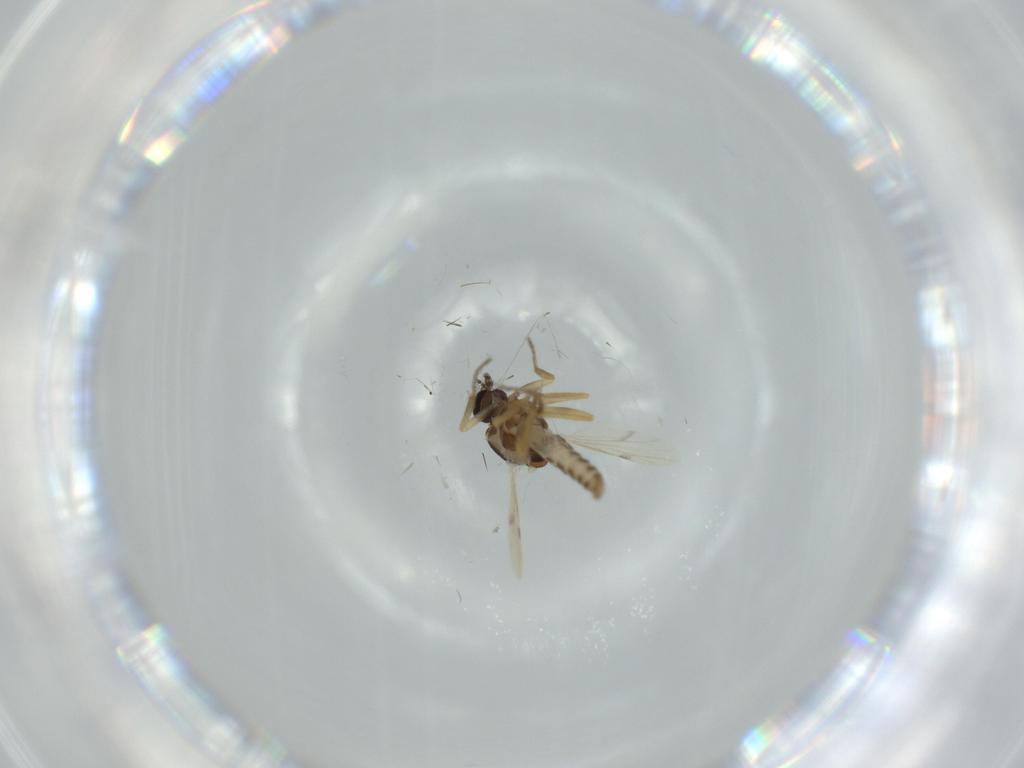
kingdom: Animalia
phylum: Arthropoda
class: Insecta
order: Diptera
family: Ceratopogonidae
